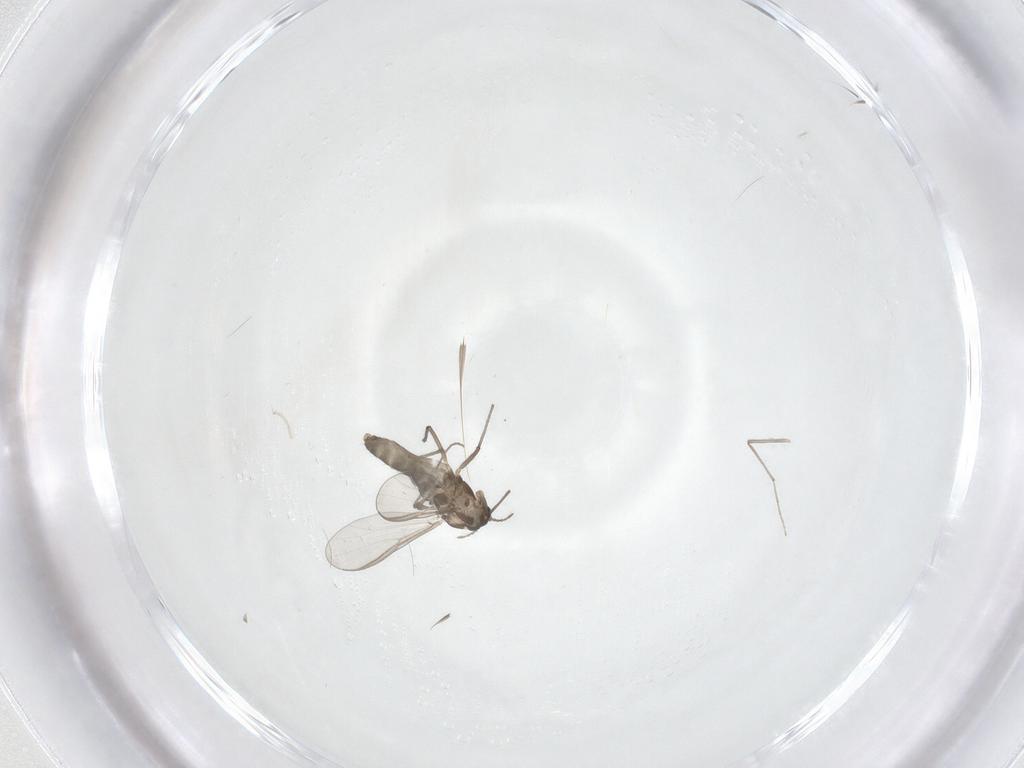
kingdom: Animalia
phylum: Arthropoda
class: Insecta
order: Diptera
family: Chironomidae
